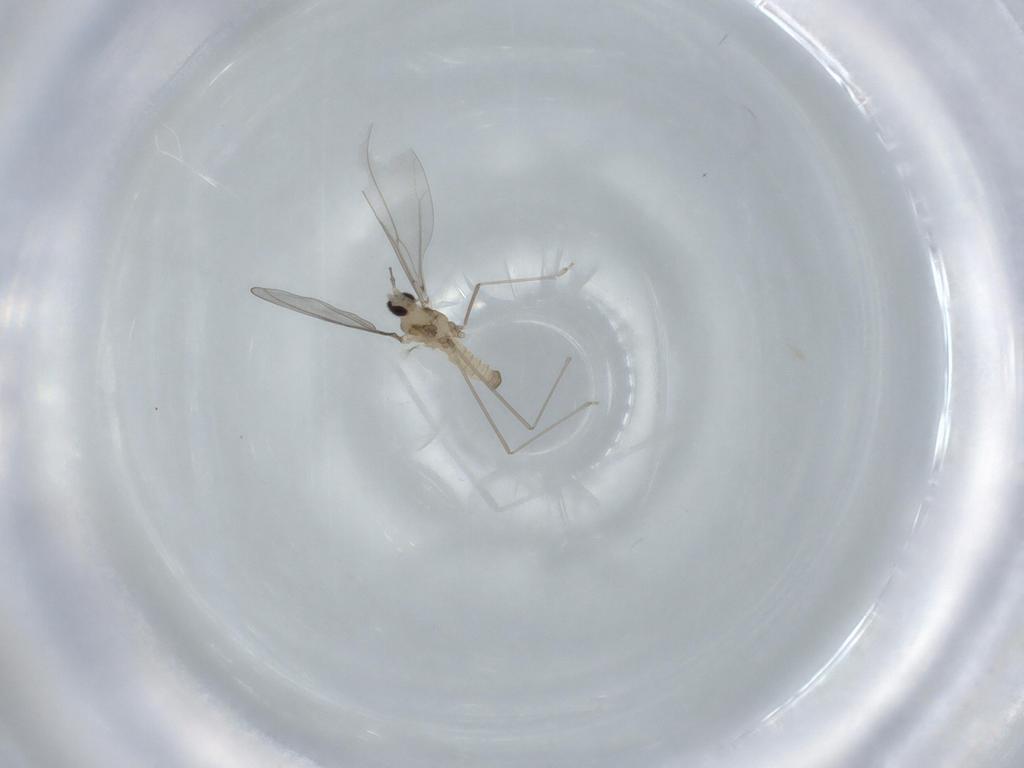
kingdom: Animalia
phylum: Arthropoda
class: Insecta
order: Diptera
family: Cecidomyiidae
